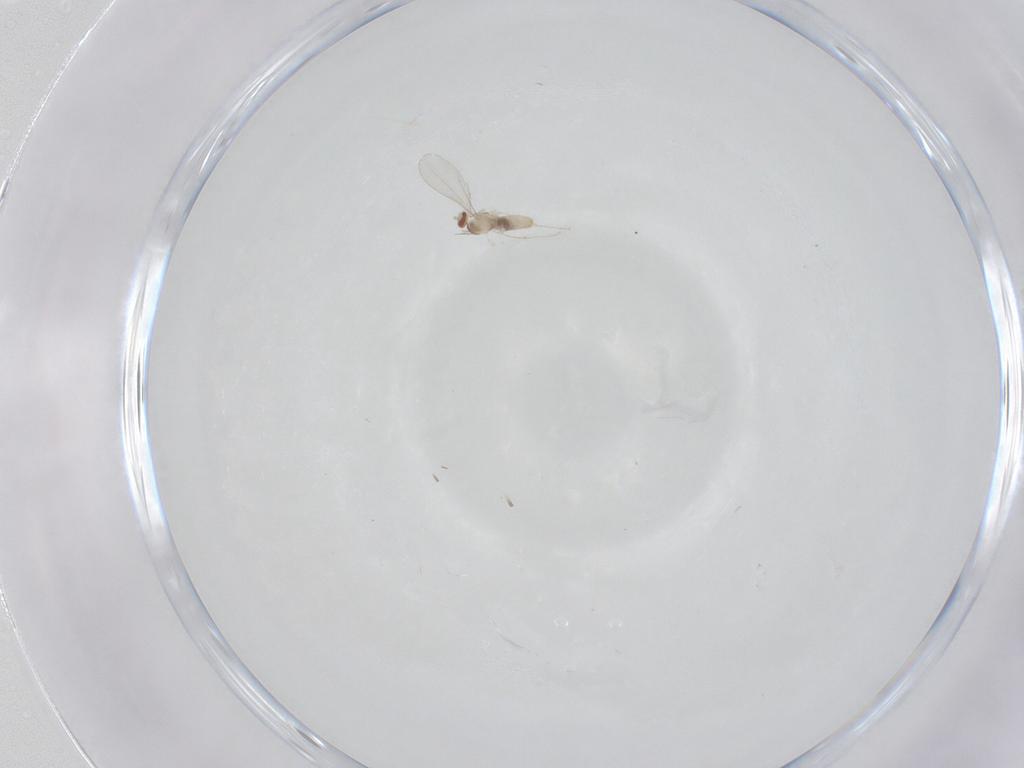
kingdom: Animalia
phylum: Arthropoda
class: Insecta
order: Diptera
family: Cecidomyiidae
